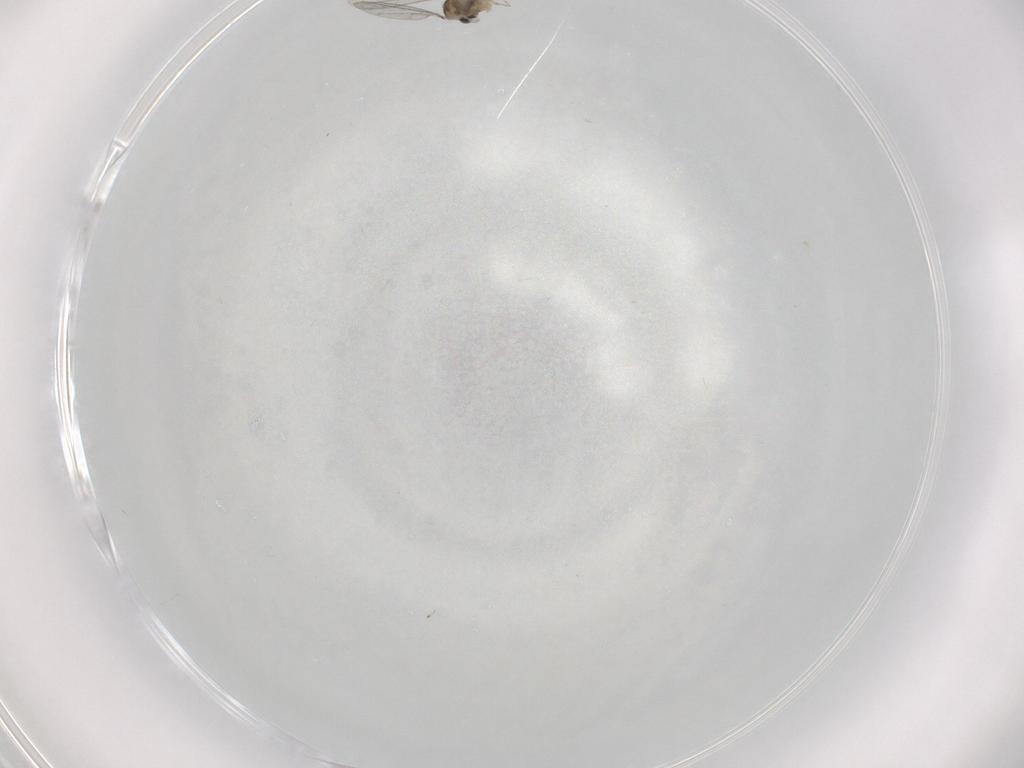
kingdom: Animalia
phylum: Arthropoda
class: Insecta
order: Diptera
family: Cecidomyiidae
